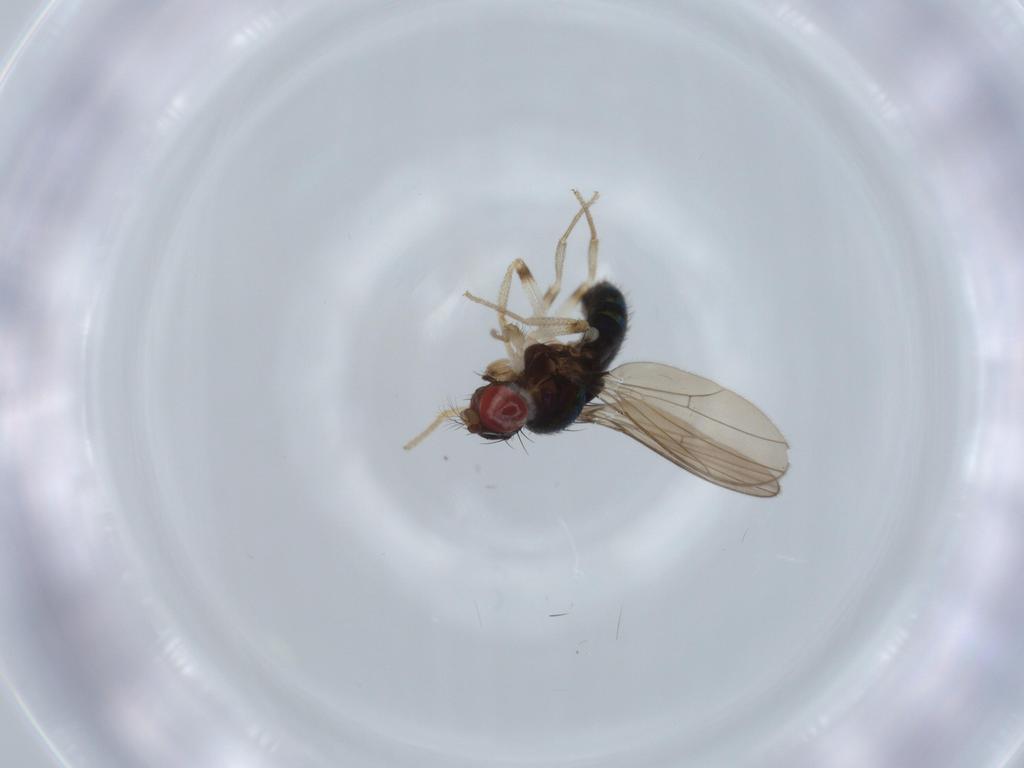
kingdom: Animalia
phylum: Arthropoda
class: Insecta
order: Diptera
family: Drosophilidae
